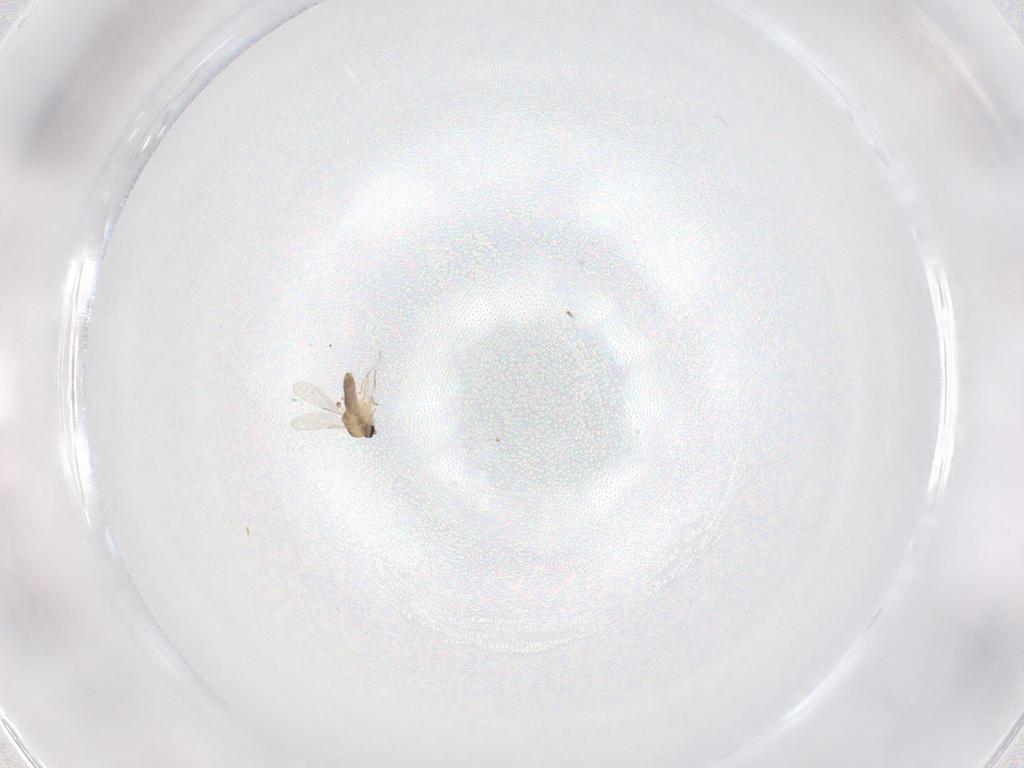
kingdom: Animalia
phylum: Arthropoda
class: Insecta
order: Diptera
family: Ceratopogonidae
